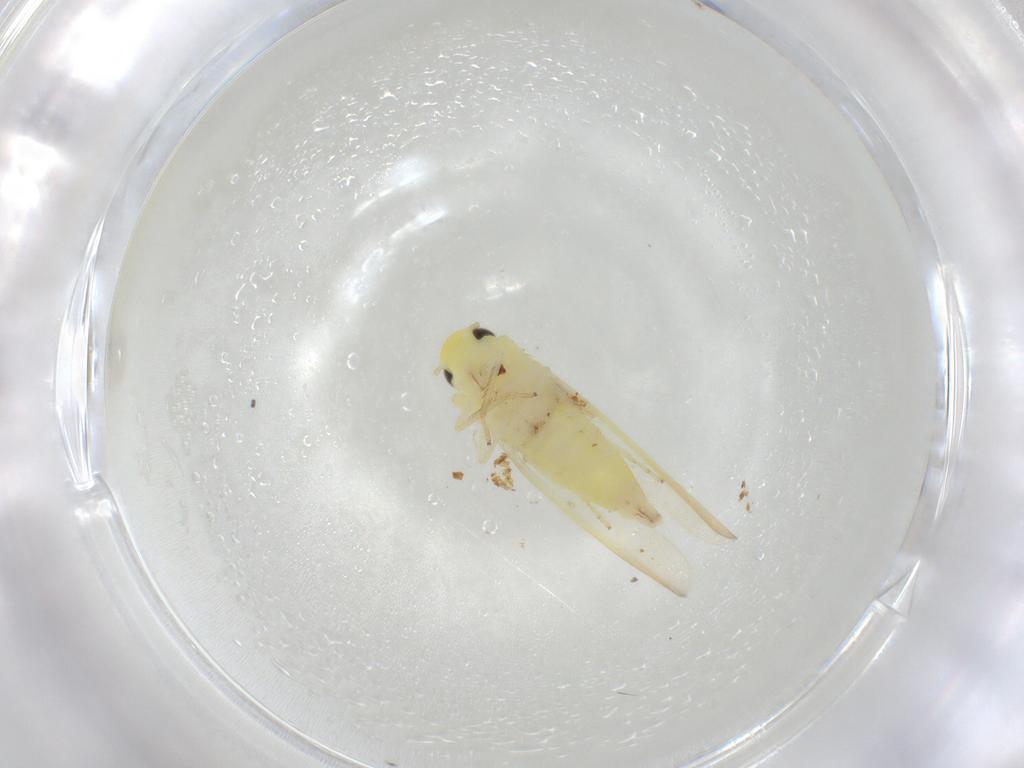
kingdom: Animalia
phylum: Arthropoda
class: Insecta
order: Hemiptera
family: Cicadellidae
